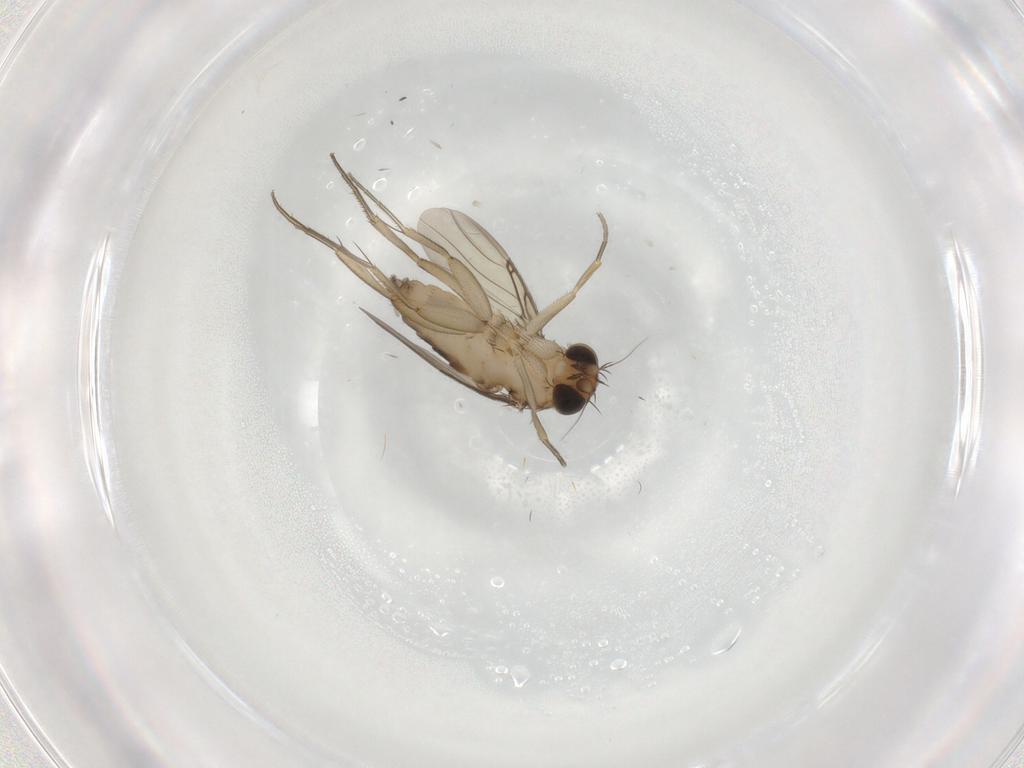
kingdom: Animalia
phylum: Arthropoda
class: Insecta
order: Diptera
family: Phoridae
